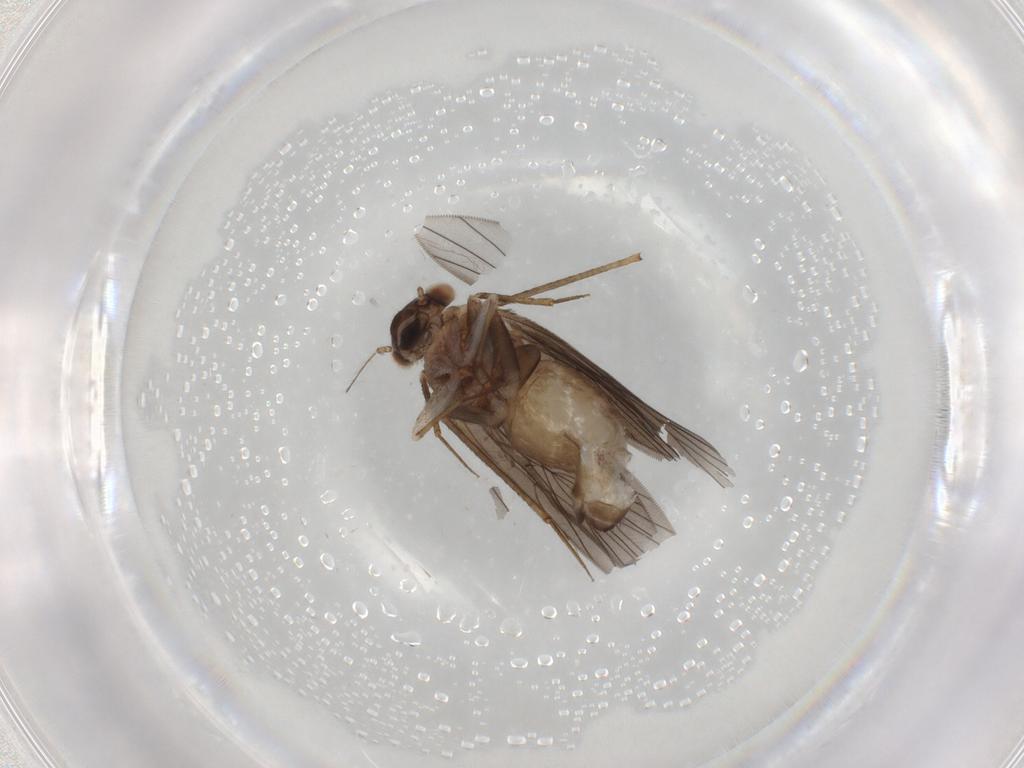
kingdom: Animalia
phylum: Arthropoda
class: Insecta
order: Psocodea
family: Lepidopsocidae
